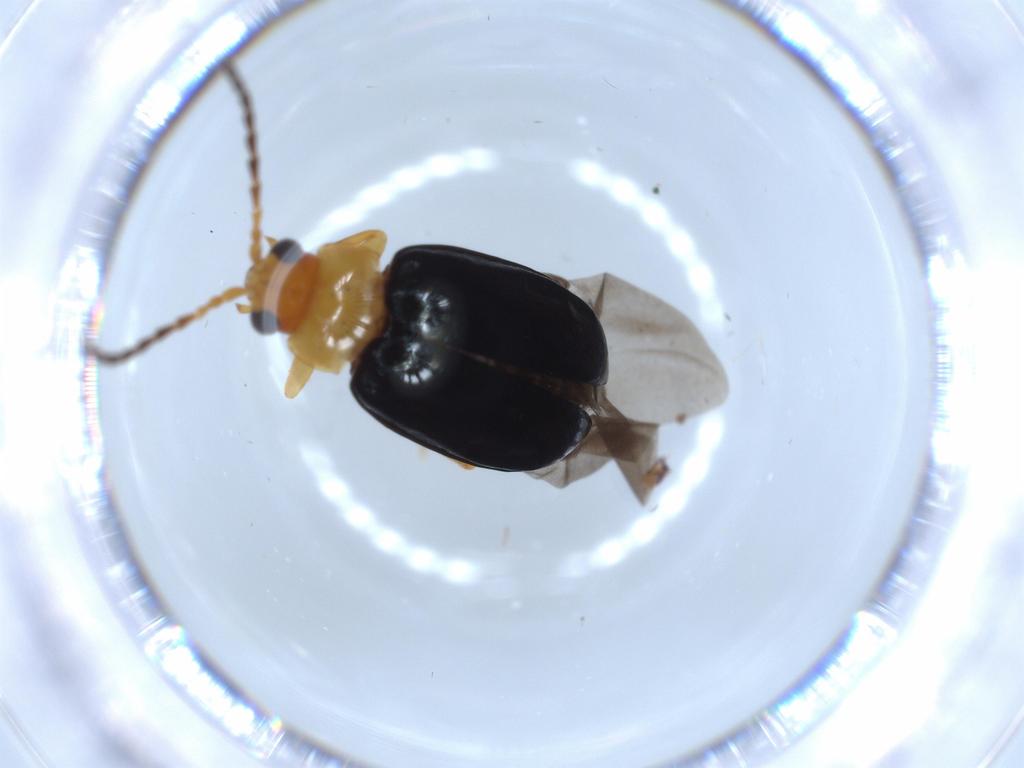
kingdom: Animalia
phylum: Arthropoda
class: Insecta
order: Coleoptera
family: Chrysomelidae
